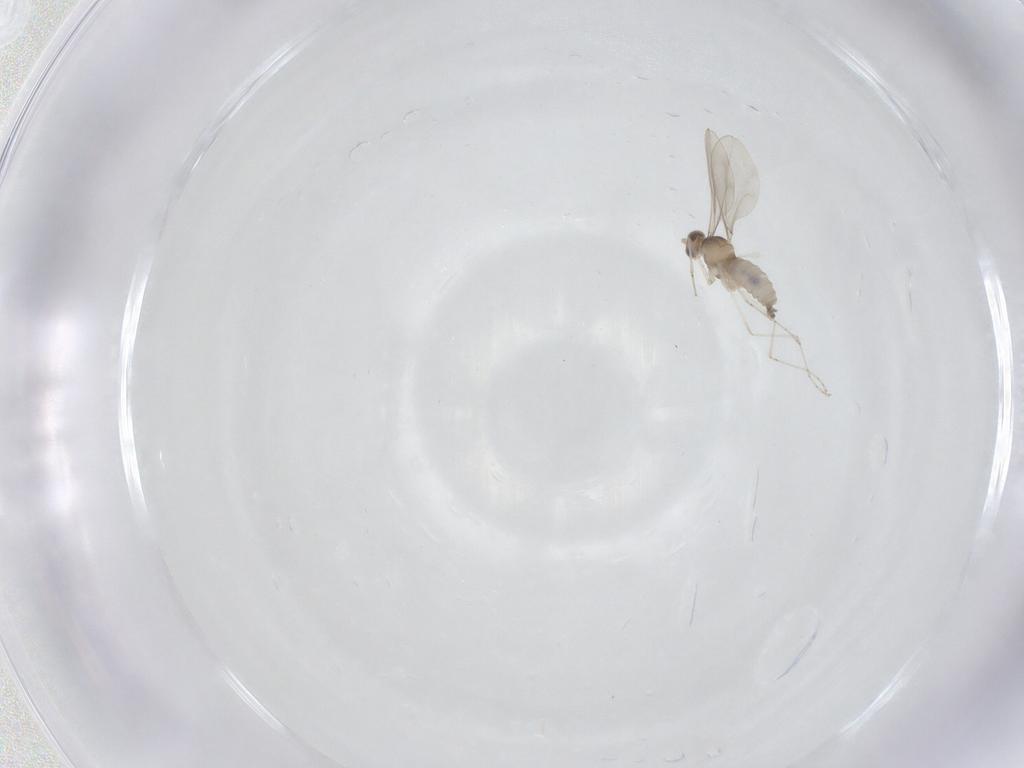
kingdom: Animalia
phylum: Arthropoda
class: Insecta
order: Diptera
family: Cecidomyiidae
